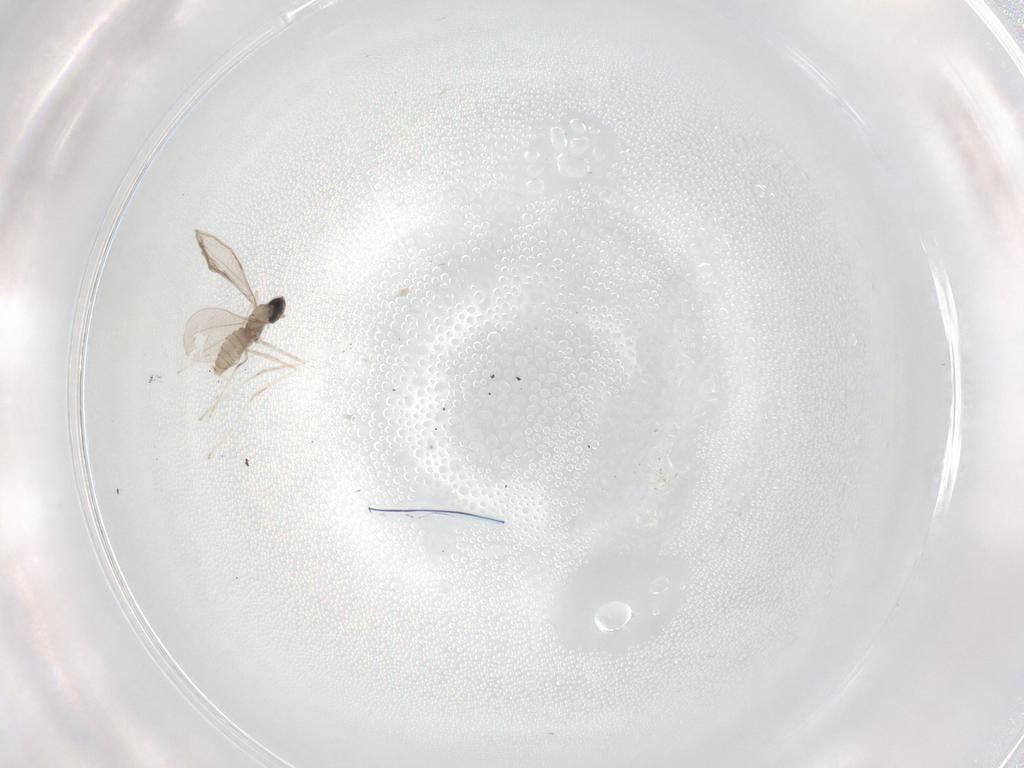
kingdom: Animalia
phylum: Arthropoda
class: Insecta
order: Diptera
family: Cecidomyiidae
